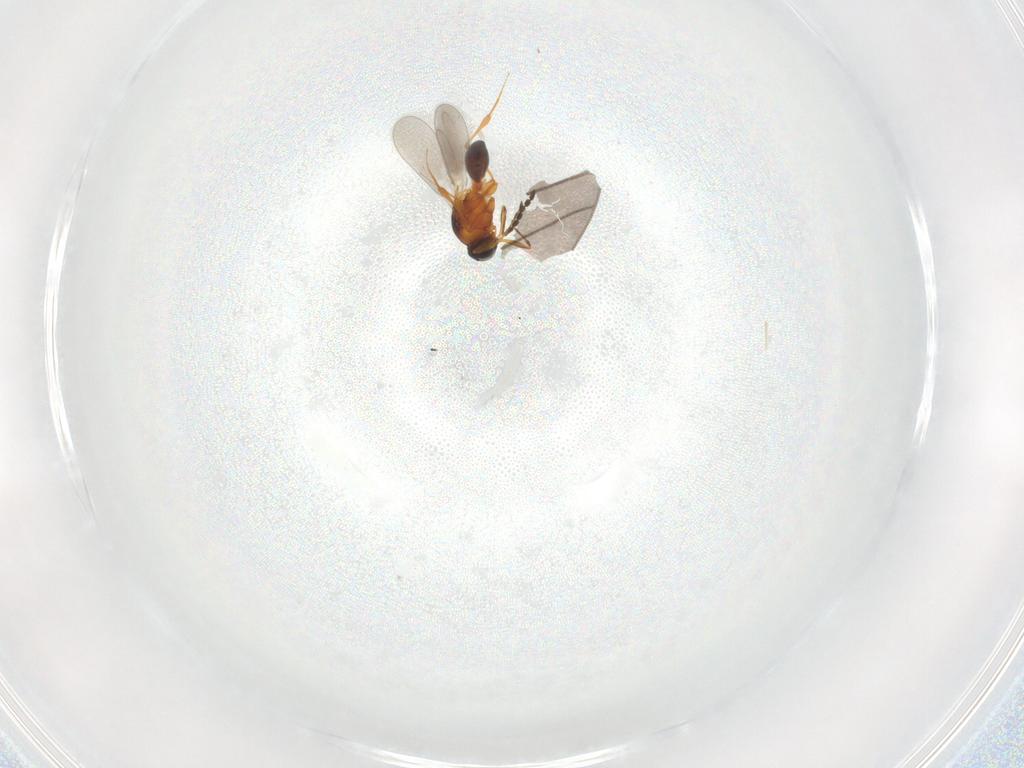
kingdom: Animalia
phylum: Arthropoda
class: Insecta
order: Hymenoptera
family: Platygastridae
